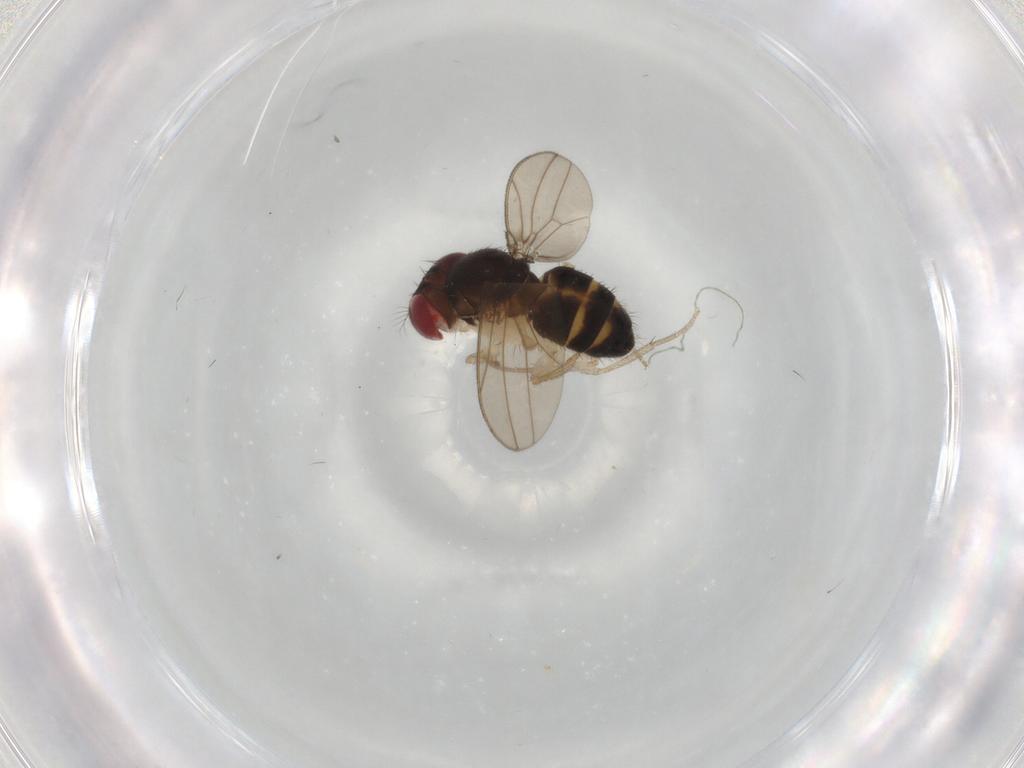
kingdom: Animalia
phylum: Arthropoda
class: Insecta
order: Diptera
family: Drosophilidae
